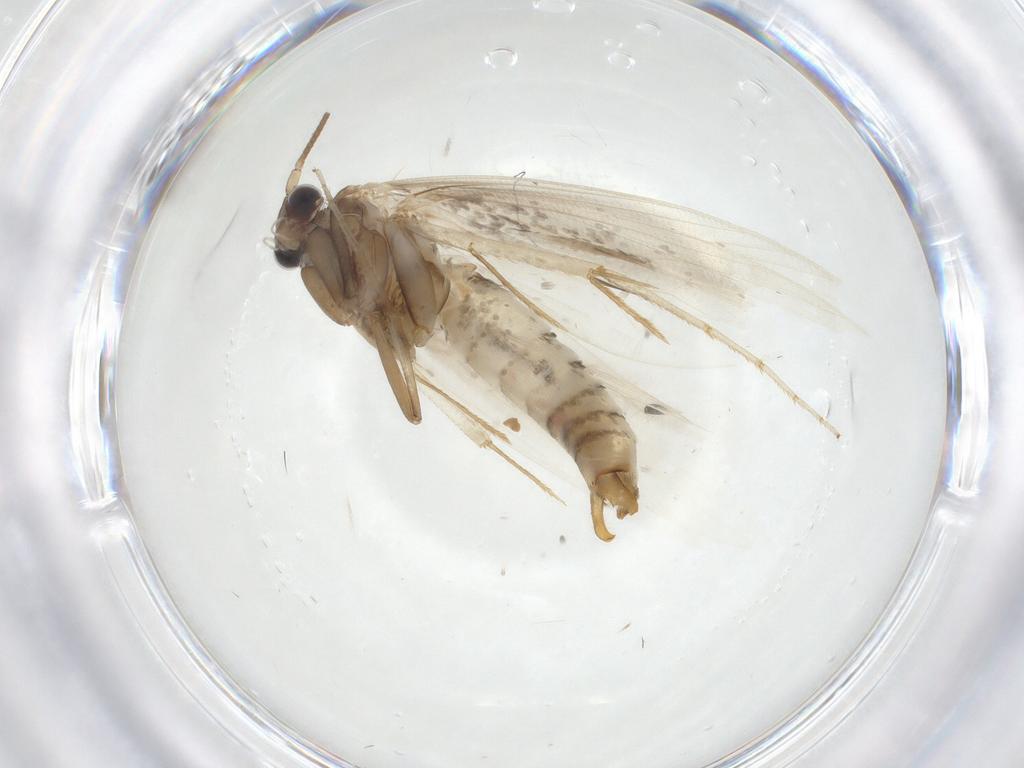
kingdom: Animalia
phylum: Arthropoda
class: Insecta
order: Lepidoptera
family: Tineidae
